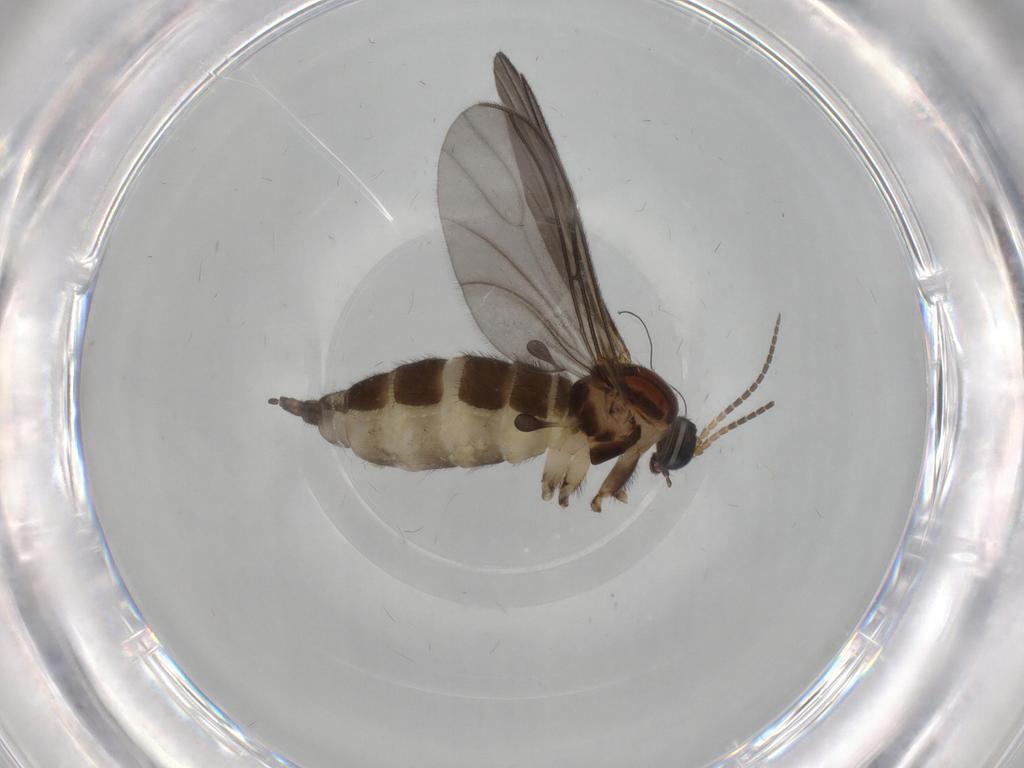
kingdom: Animalia
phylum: Arthropoda
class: Insecta
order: Diptera
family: Sciaridae
